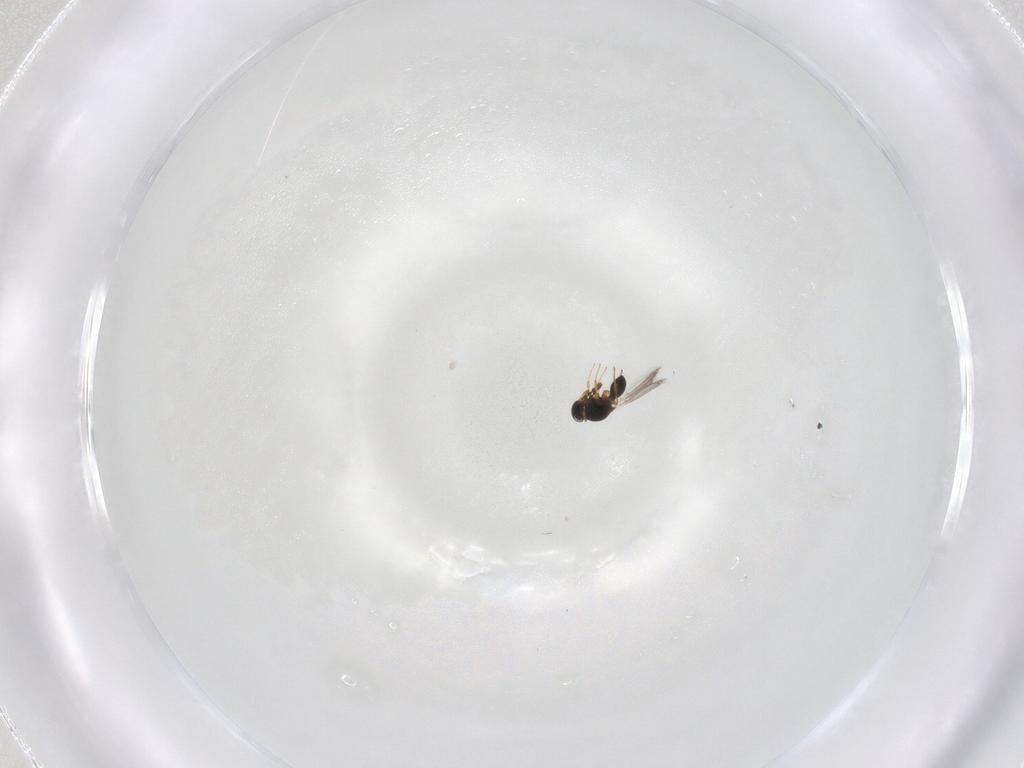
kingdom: Animalia
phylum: Arthropoda
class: Insecta
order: Hymenoptera
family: Platygastridae
